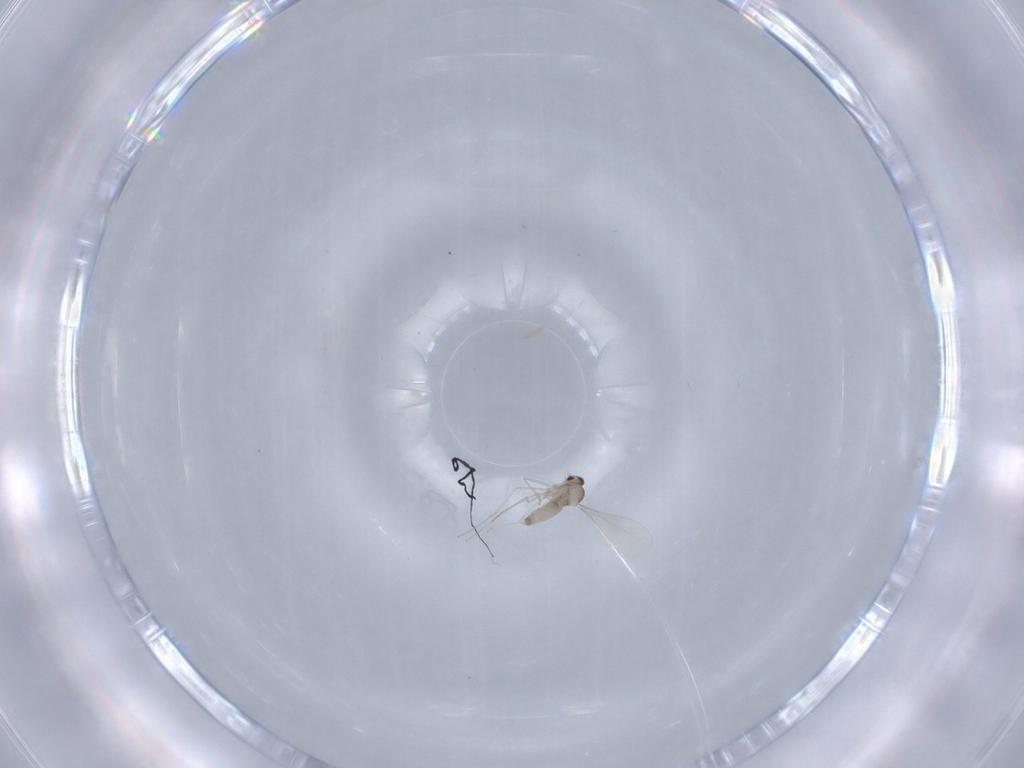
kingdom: Animalia
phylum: Arthropoda
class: Insecta
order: Diptera
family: Cecidomyiidae
